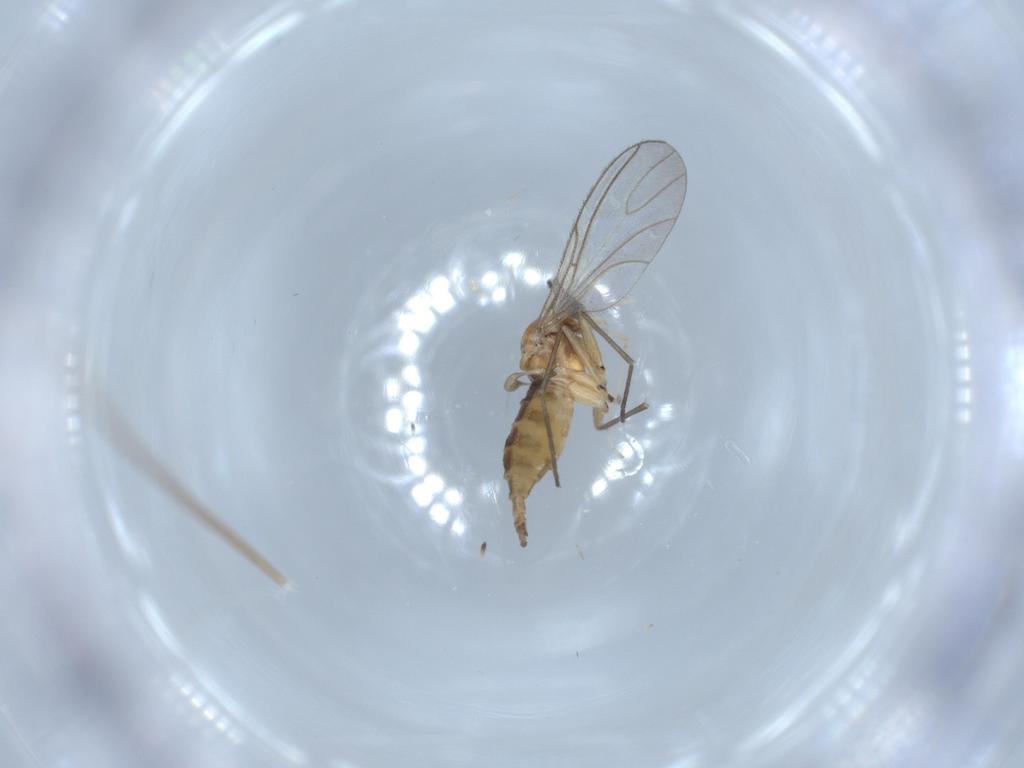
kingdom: Animalia
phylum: Arthropoda
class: Insecta
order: Diptera
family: Cecidomyiidae
